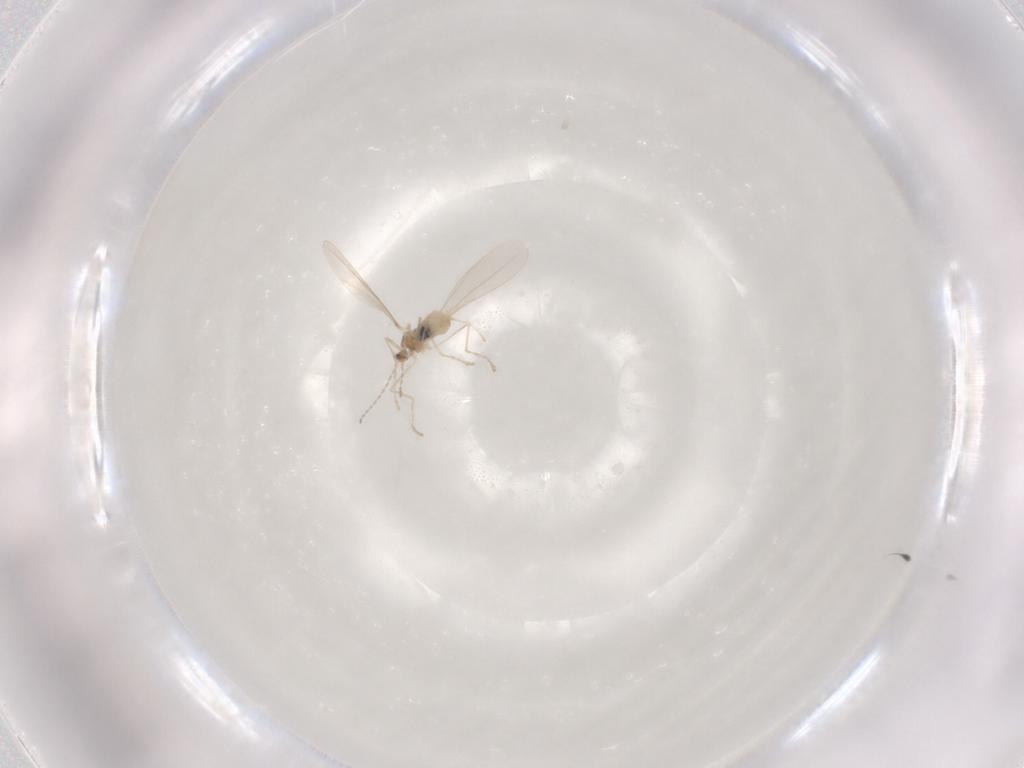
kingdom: Animalia
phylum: Arthropoda
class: Insecta
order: Diptera
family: Cecidomyiidae
